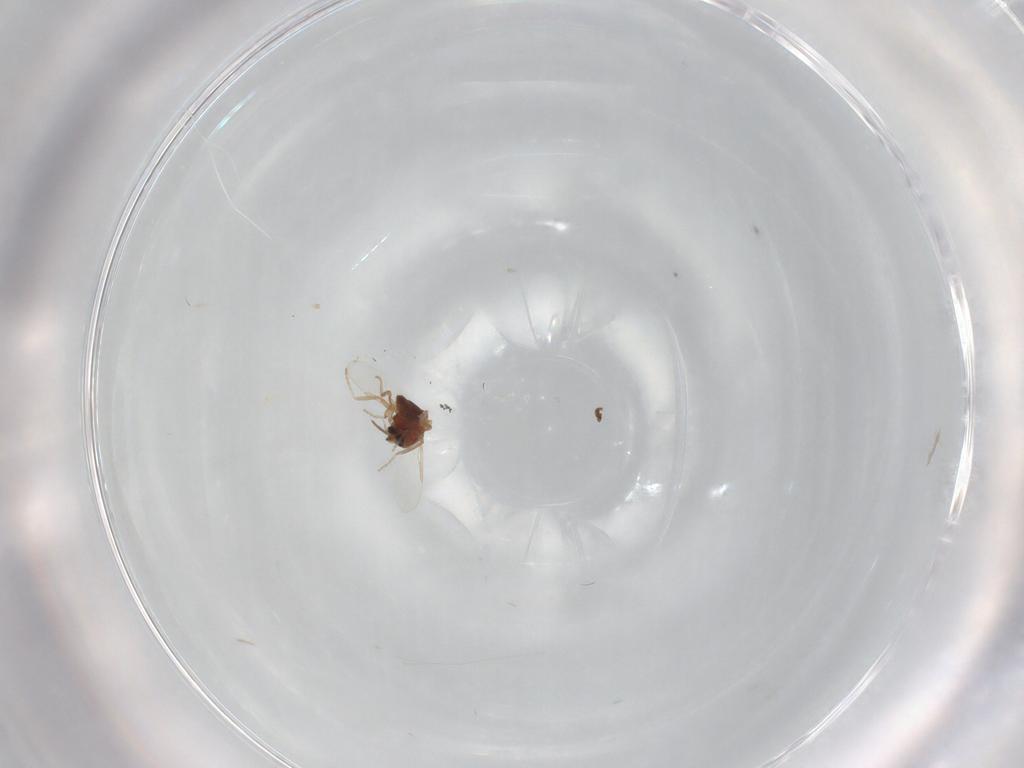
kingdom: Animalia
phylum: Arthropoda
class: Insecta
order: Diptera
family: Ceratopogonidae
